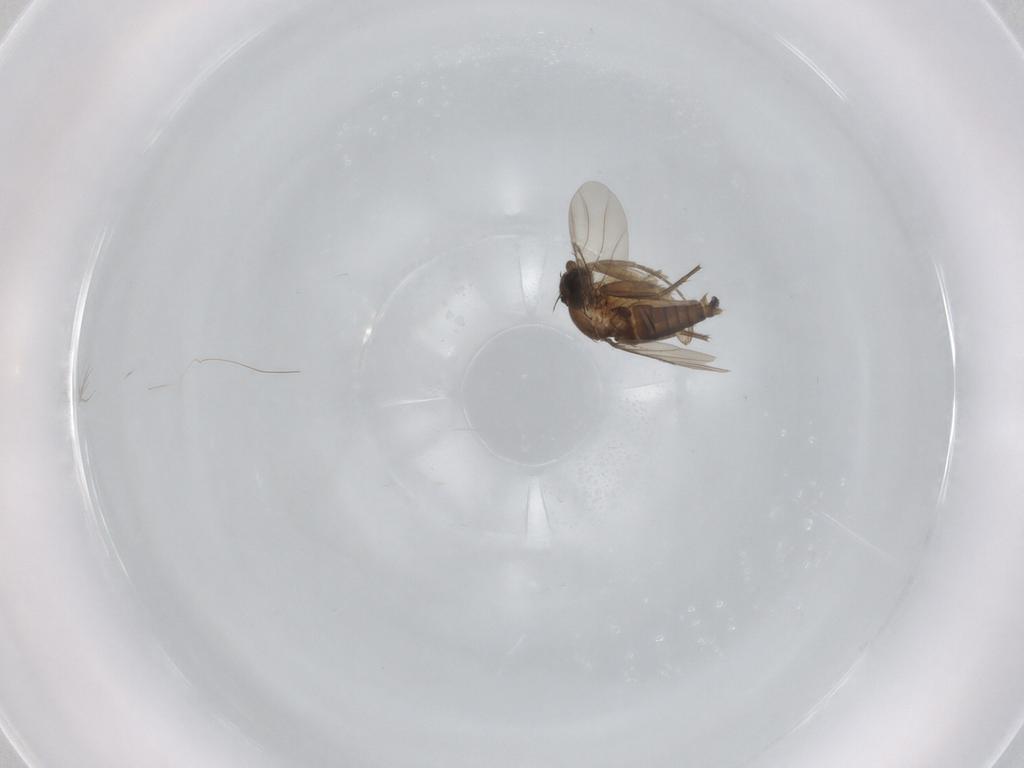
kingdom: Animalia
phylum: Arthropoda
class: Insecta
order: Diptera
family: Phoridae
